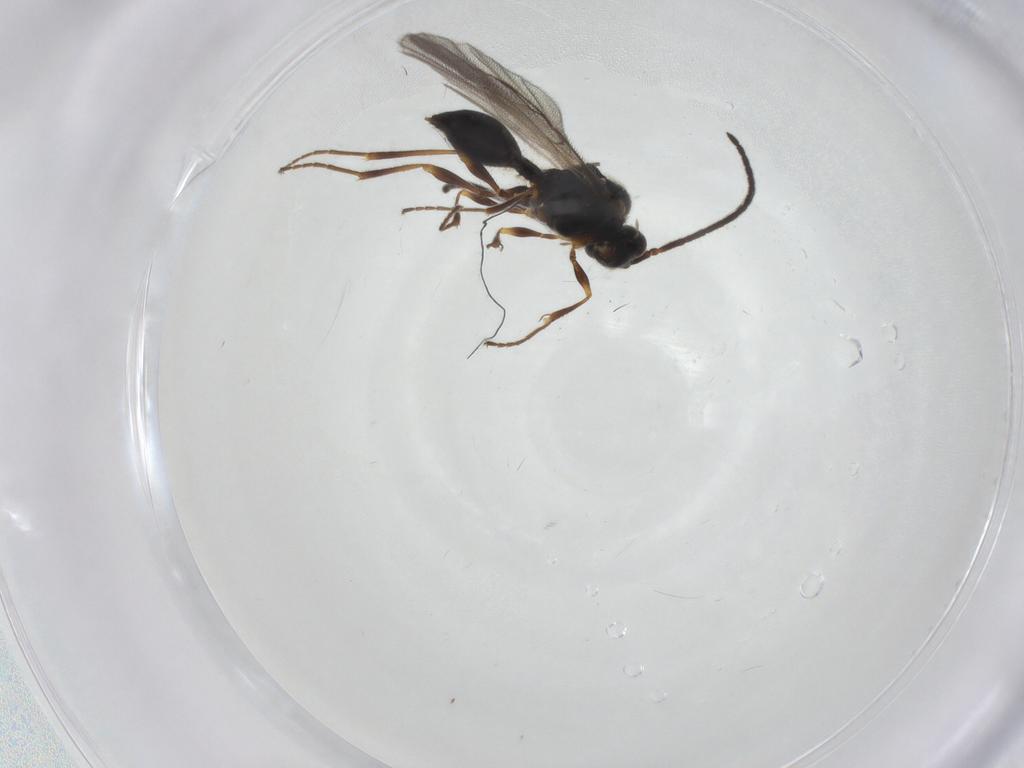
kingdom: Animalia
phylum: Arthropoda
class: Insecta
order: Hymenoptera
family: Diapriidae
